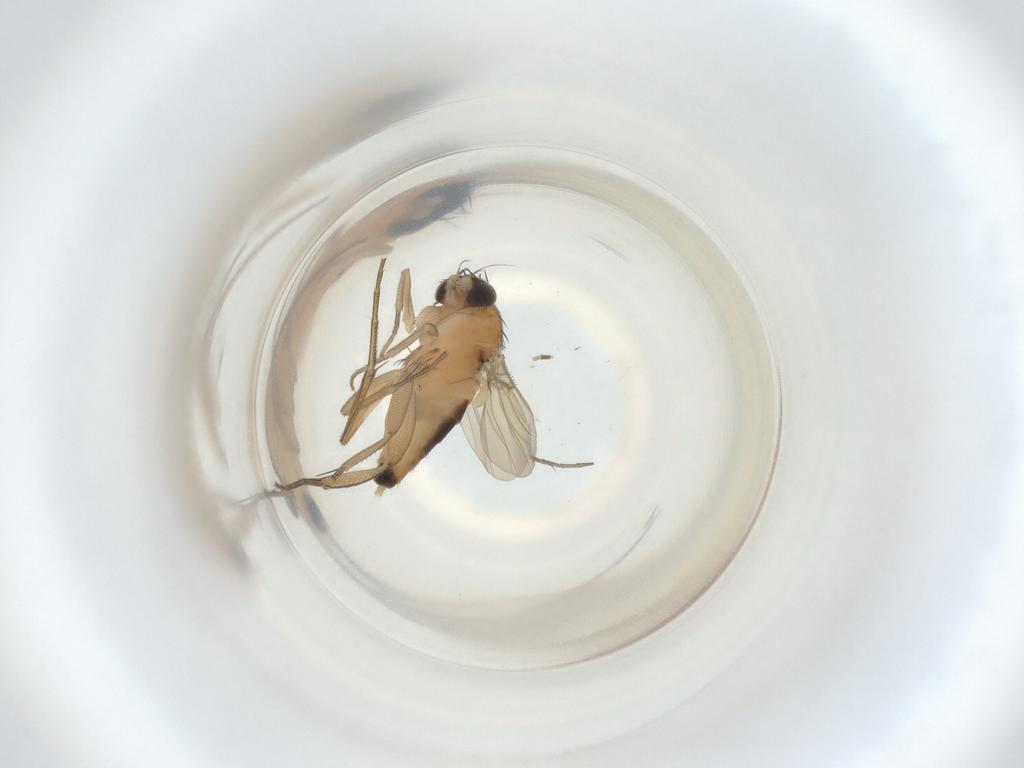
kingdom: Animalia
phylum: Arthropoda
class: Insecta
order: Diptera
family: Phoridae
